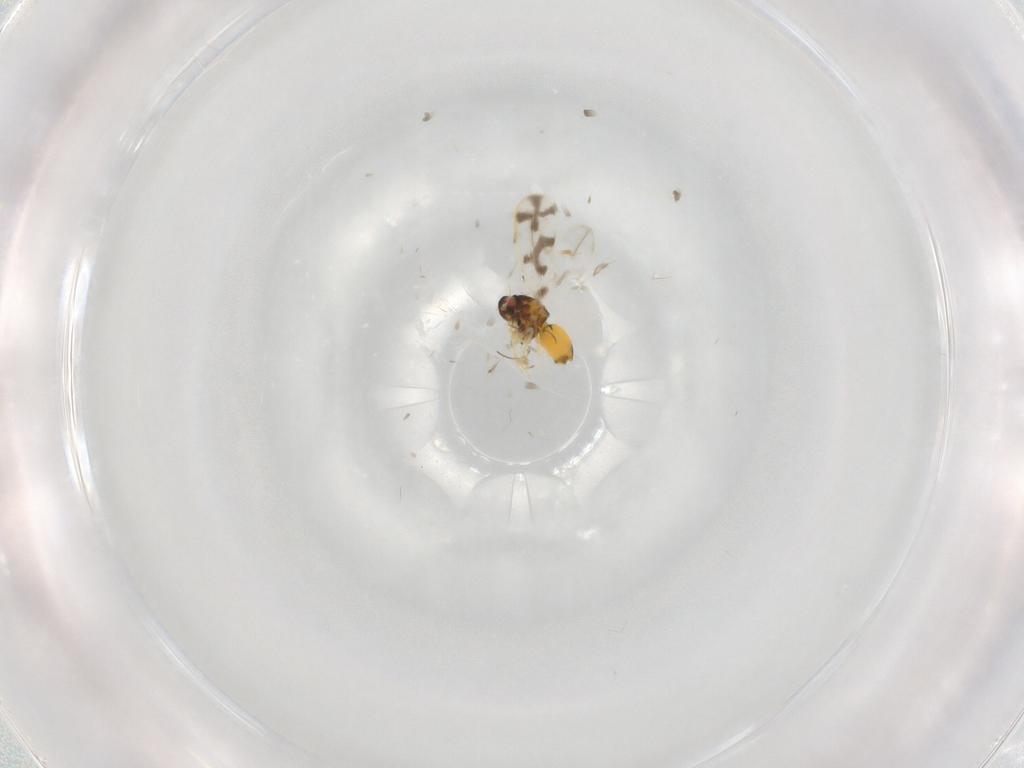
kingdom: Animalia
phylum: Arthropoda
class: Insecta
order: Hemiptera
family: Aleyrodidae
